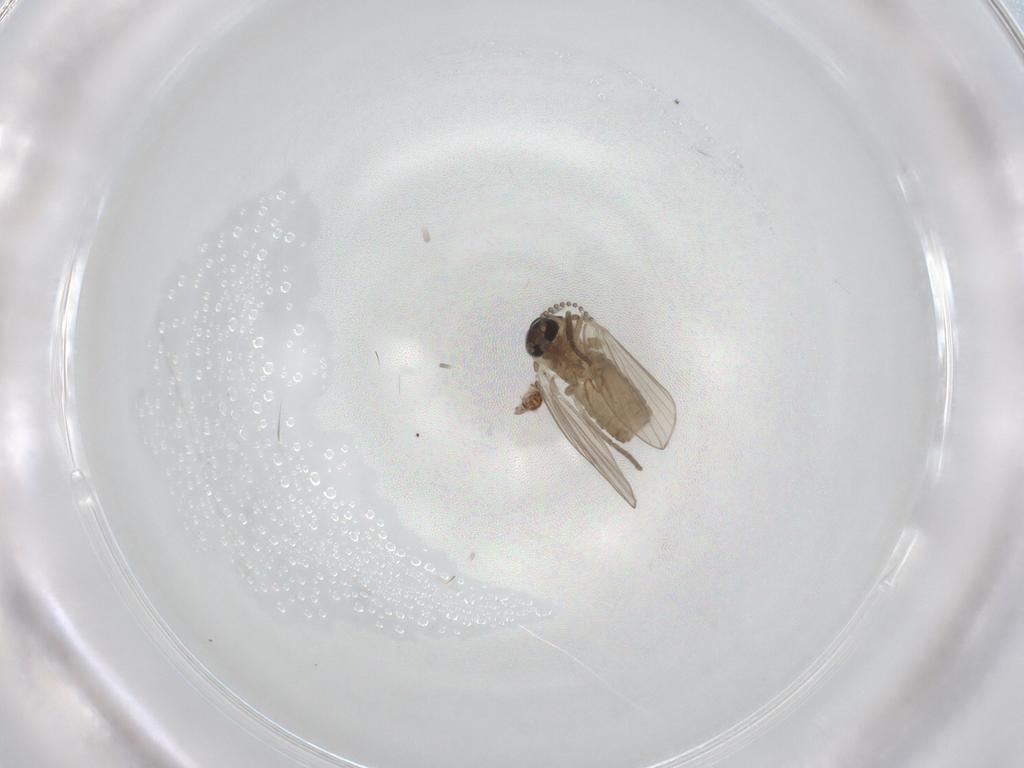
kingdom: Animalia
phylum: Arthropoda
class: Insecta
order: Diptera
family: Psychodidae
